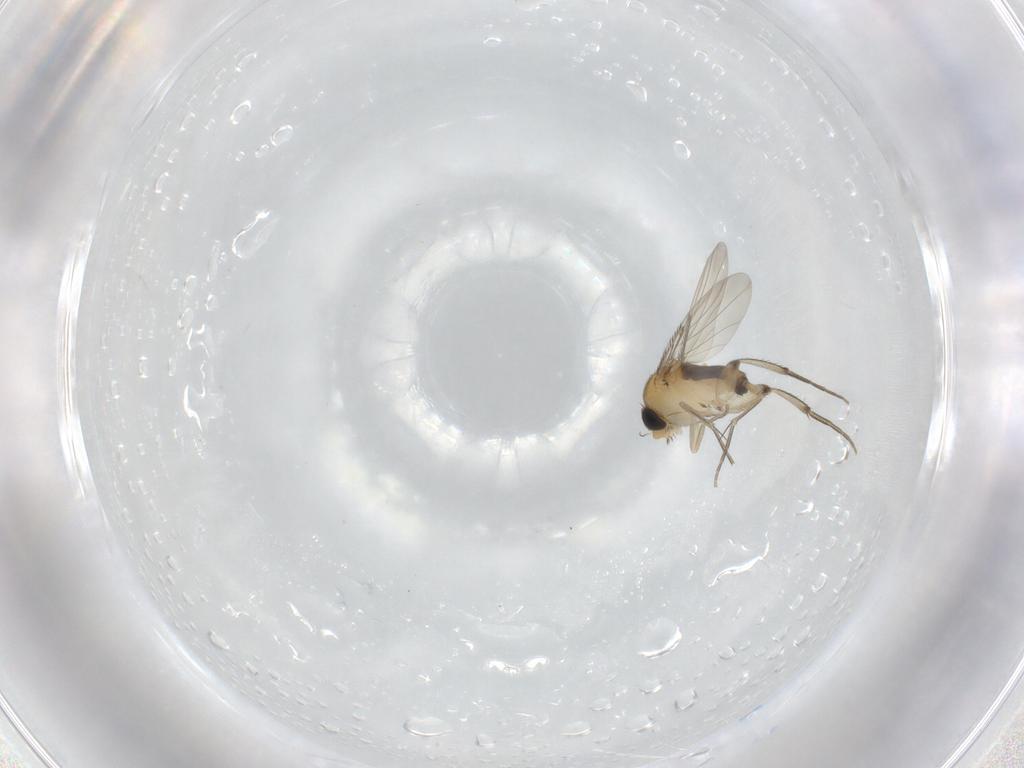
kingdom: Animalia
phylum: Arthropoda
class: Insecta
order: Diptera
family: Phoridae
